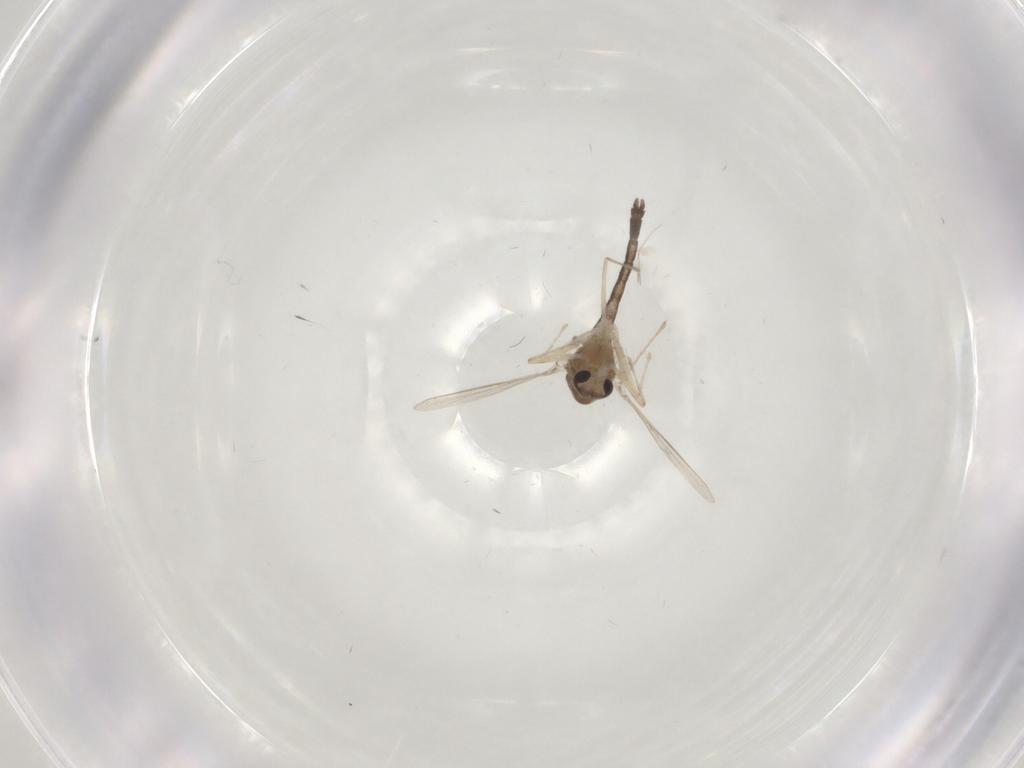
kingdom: Animalia
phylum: Arthropoda
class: Insecta
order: Diptera
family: Chironomidae
